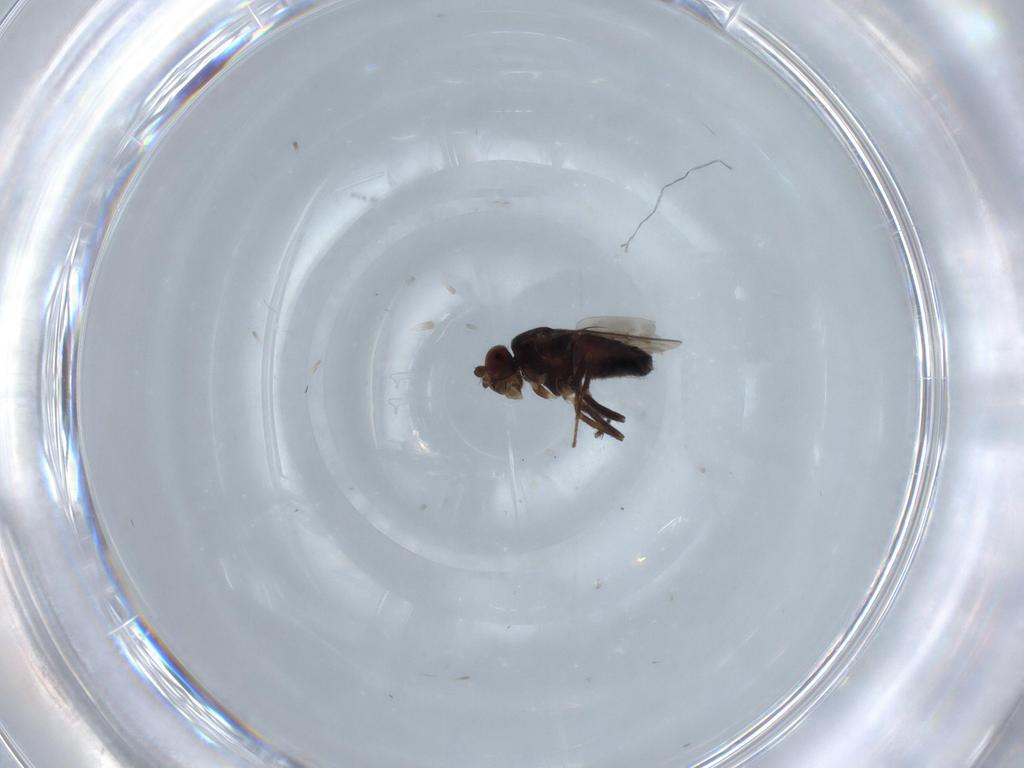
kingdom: Animalia
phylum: Arthropoda
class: Insecta
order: Diptera
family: Sphaeroceridae
